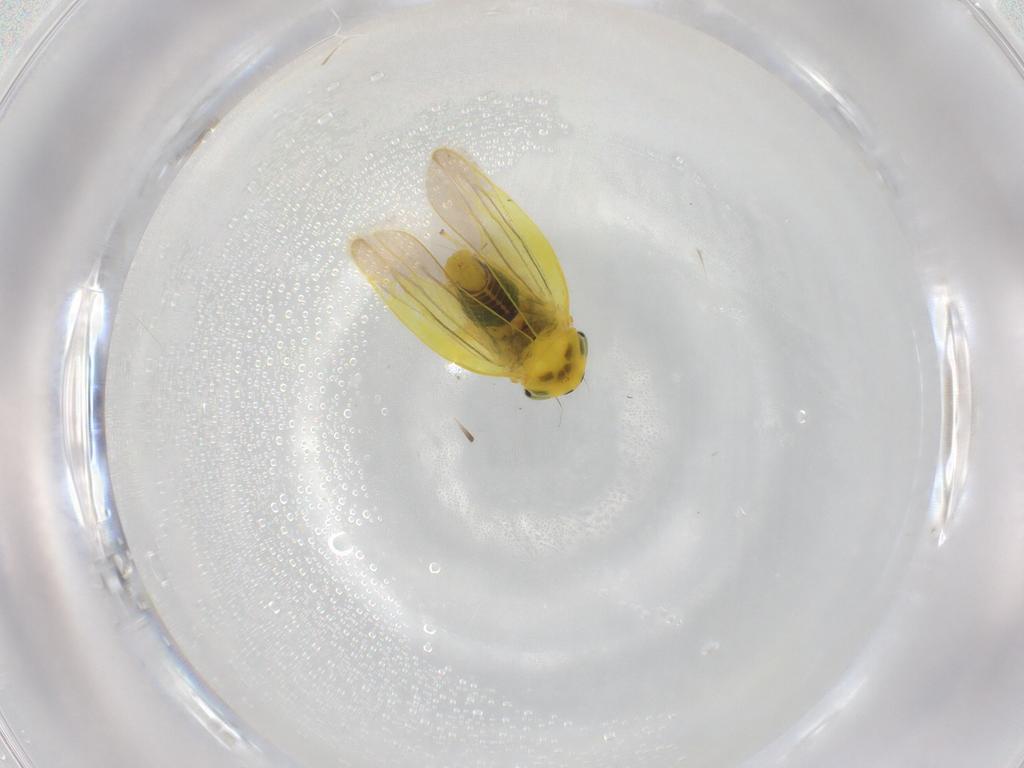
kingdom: Animalia
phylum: Arthropoda
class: Insecta
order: Hemiptera
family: Cicadellidae
